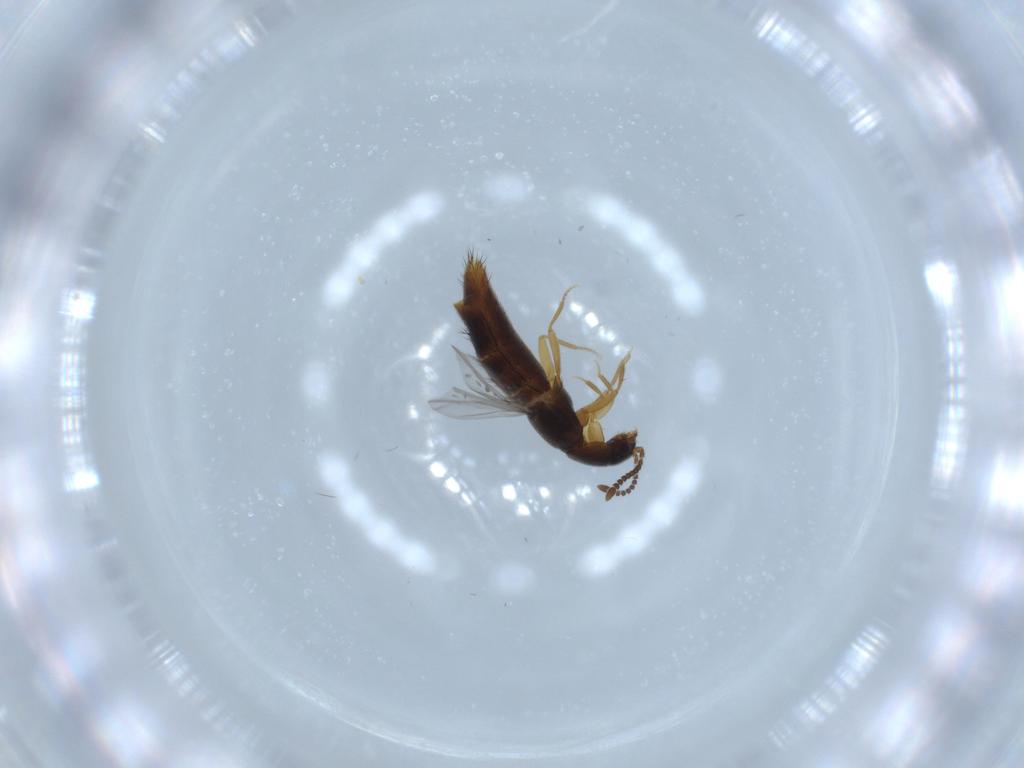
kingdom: Animalia
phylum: Arthropoda
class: Insecta
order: Coleoptera
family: Staphylinidae
